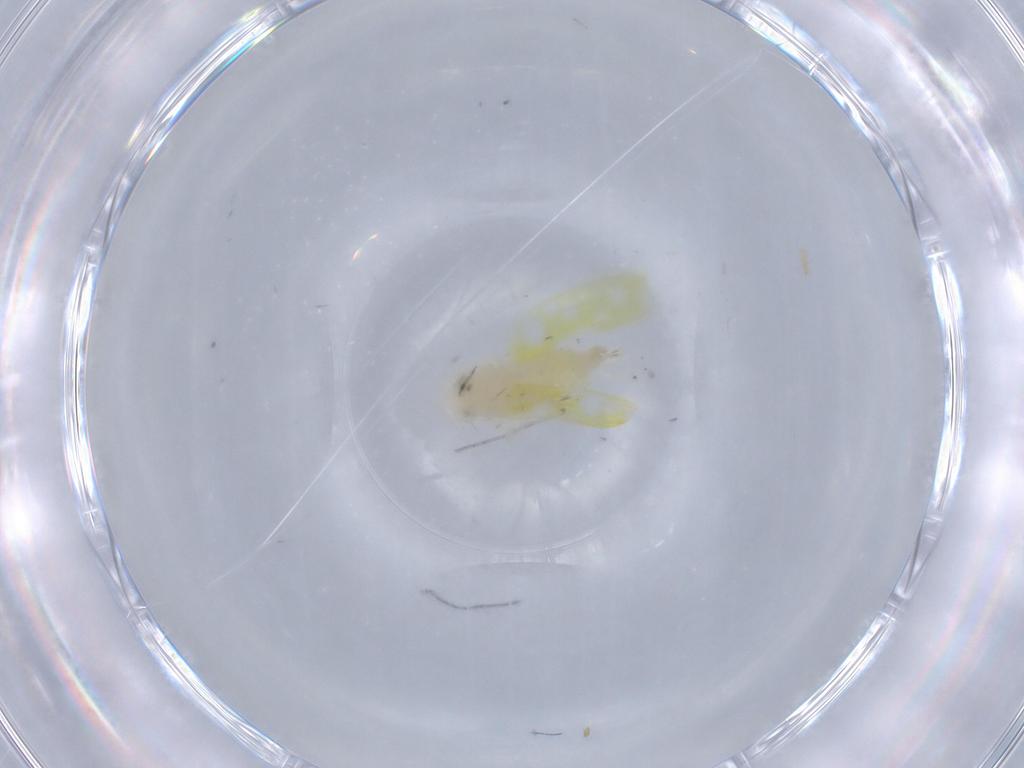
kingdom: Animalia
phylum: Arthropoda
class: Insecta
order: Hemiptera
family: Cicadellidae
